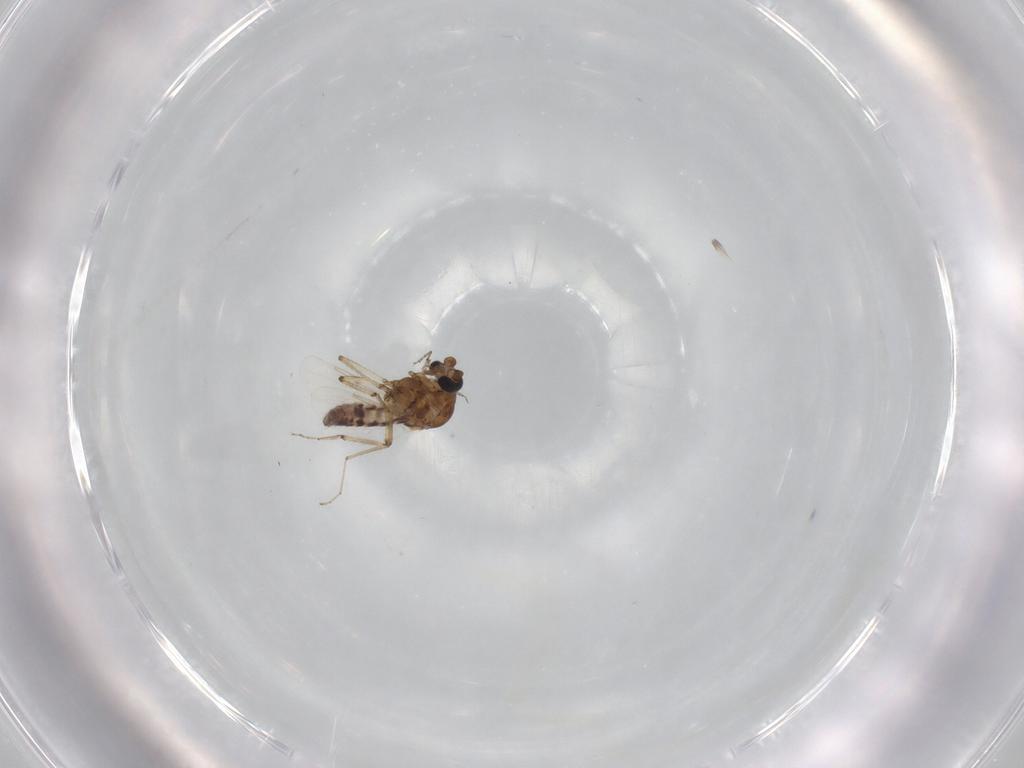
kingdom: Animalia
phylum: Arthropoda
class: Insecta
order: Diptera
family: Ceratopogonidae
